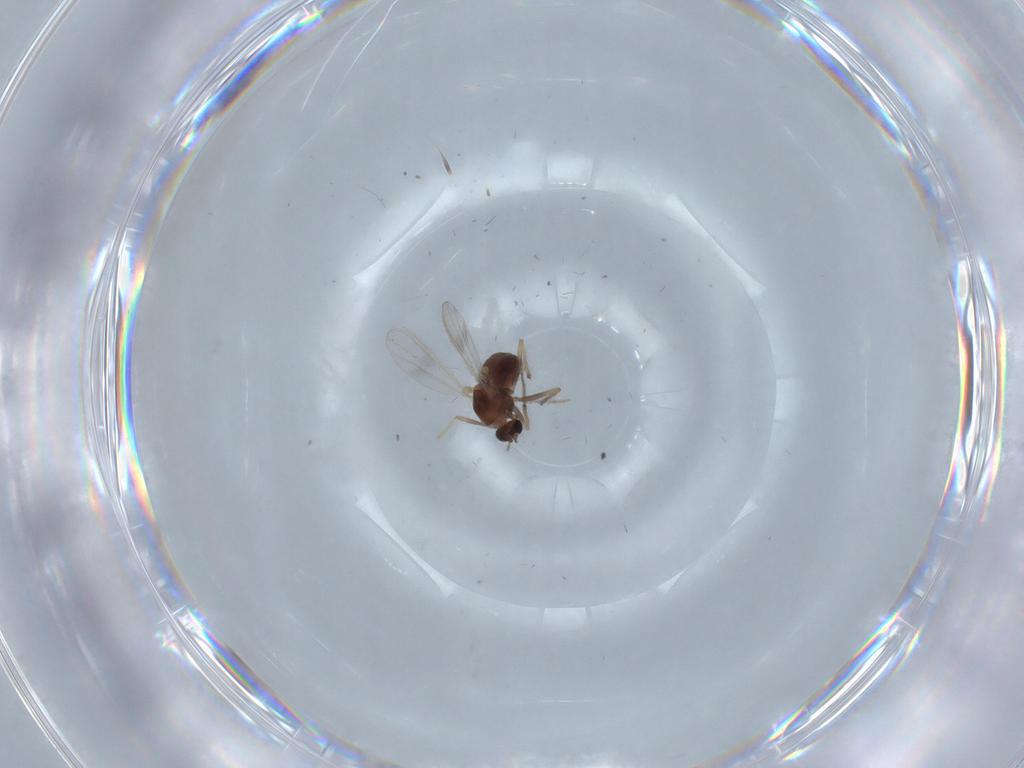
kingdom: Animalia
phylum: Arthropoda
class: Insecta
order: Diptera
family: Chironomidae
